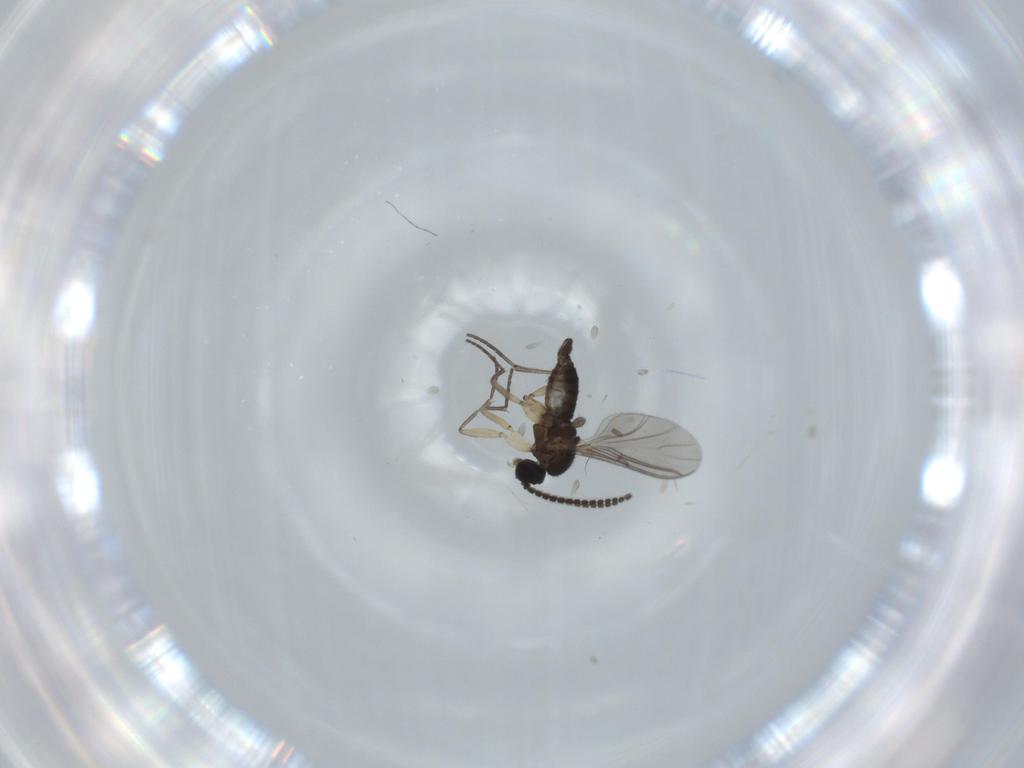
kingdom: Animalia
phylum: Arthropoda
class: Insecta
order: Diptera
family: Sciaridae
